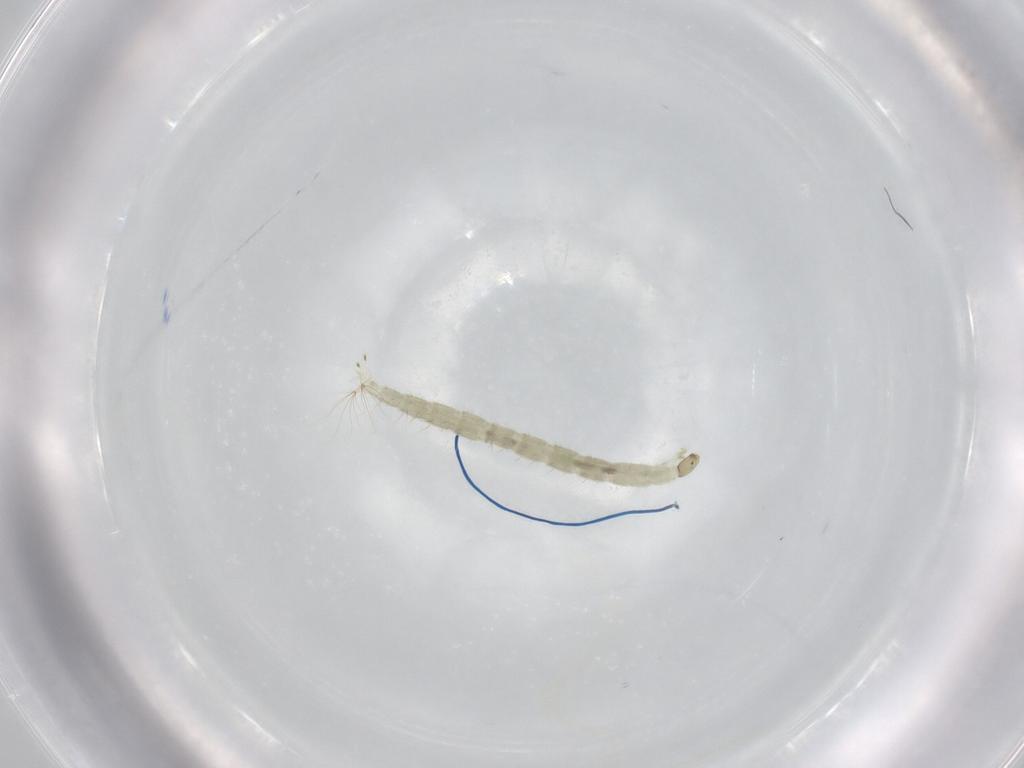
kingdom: Animalia
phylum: Arthropoda
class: Insecta
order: Diptera
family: Chironomidae
